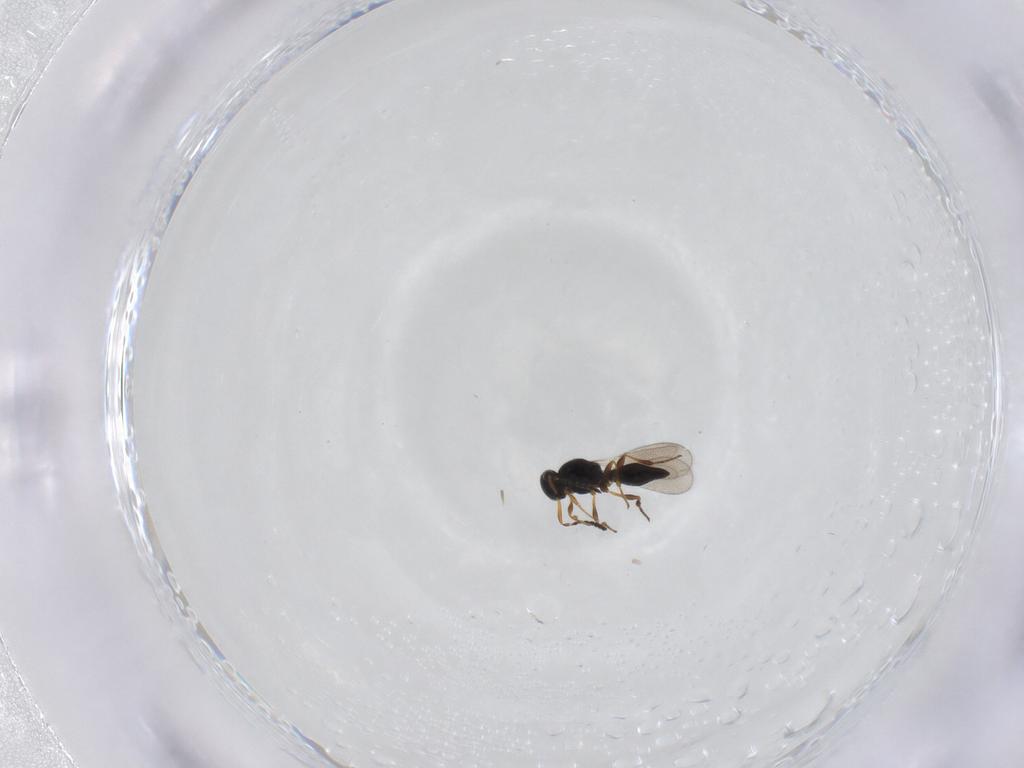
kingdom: Animalia
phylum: Arthropoda
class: Insecta
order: Hymenoptera
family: Platygastridae
